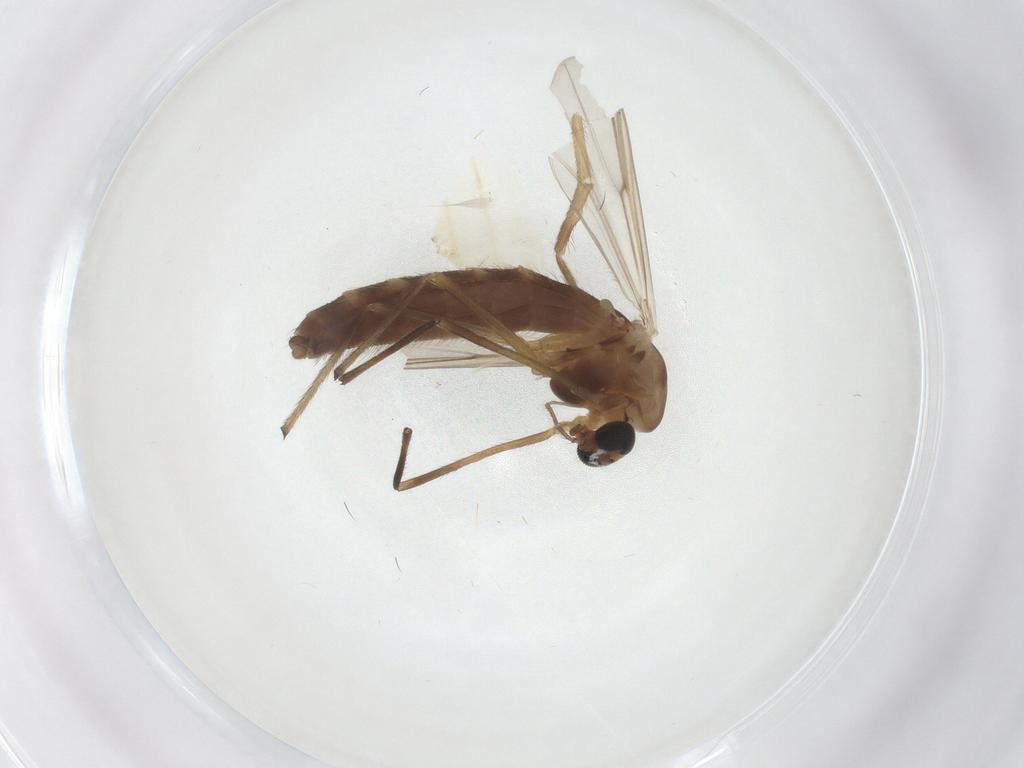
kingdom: Animalia
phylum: Arthropoda
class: Insecta
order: Diptera
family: Chironomidae
